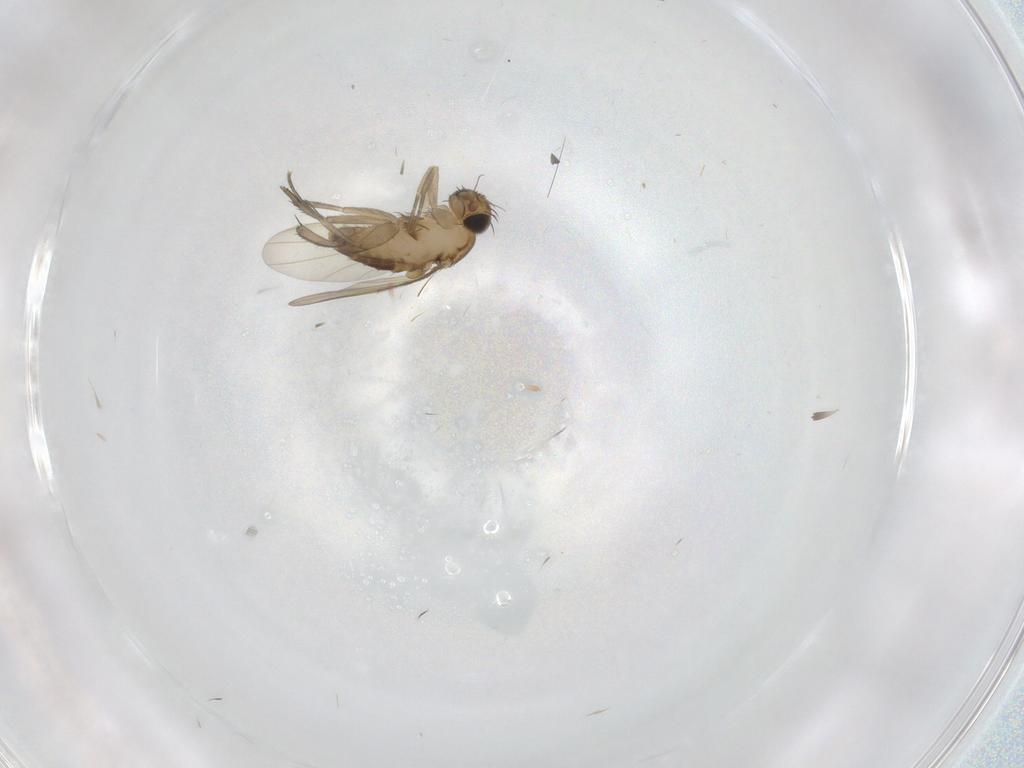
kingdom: Animalia
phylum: Arthropoda
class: Insecta
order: Diptera
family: Phoridae
